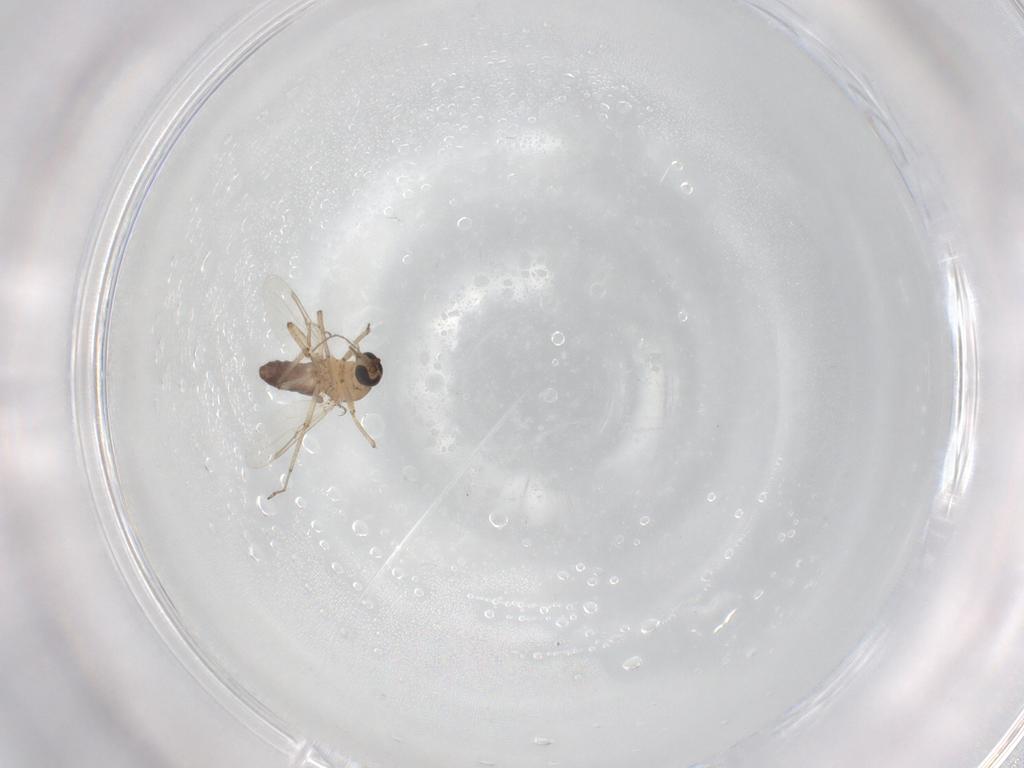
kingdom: Animalia
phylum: Arthropoda
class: Insecta
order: Diptera
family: Ceratopogonidae
